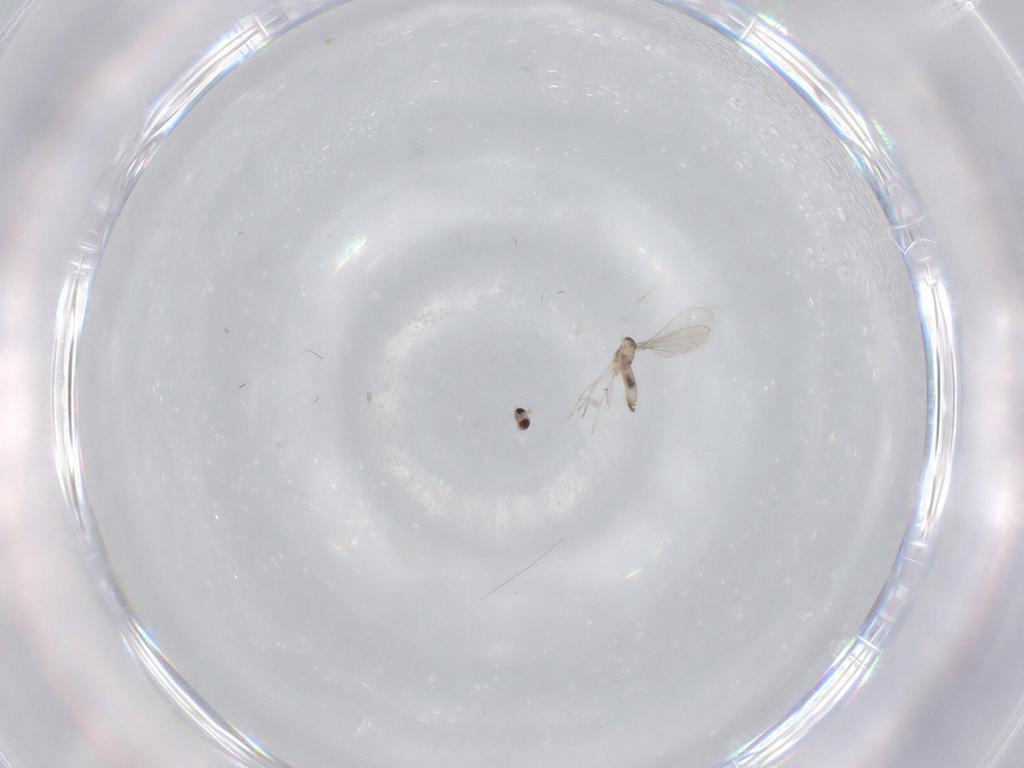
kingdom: Animalia
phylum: Arthropoda
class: Insecta
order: Diptera
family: Cecidomyiidae
